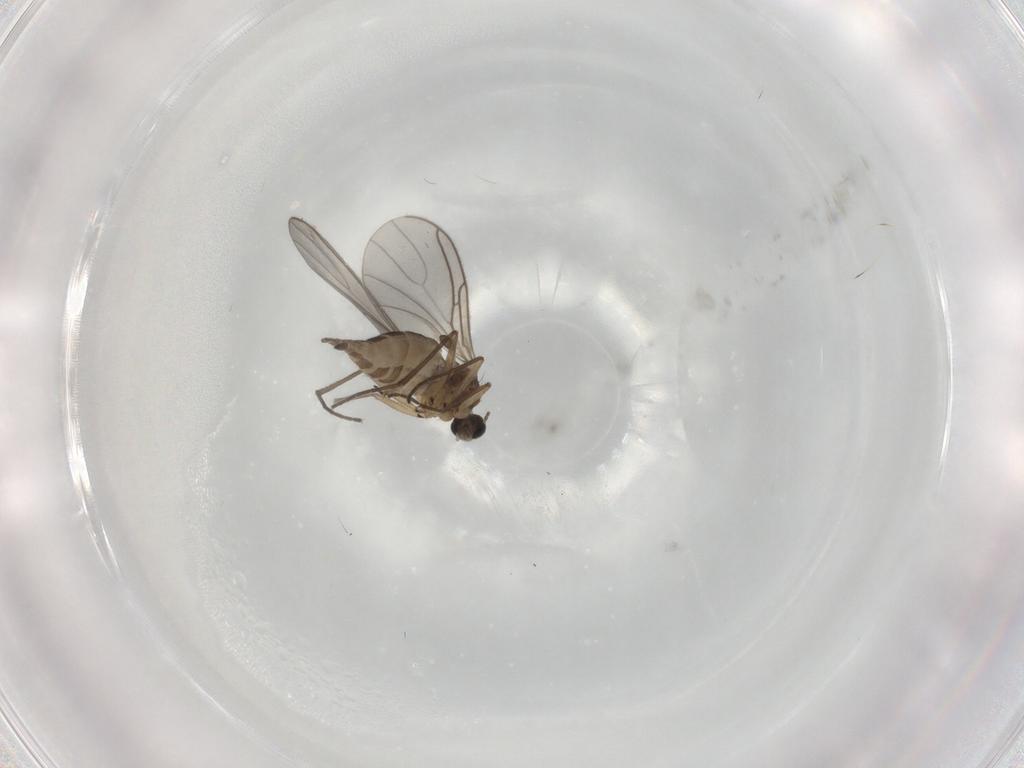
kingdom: Animalia
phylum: Arthropoda
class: Insecta
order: Diptera
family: Sciaridae
